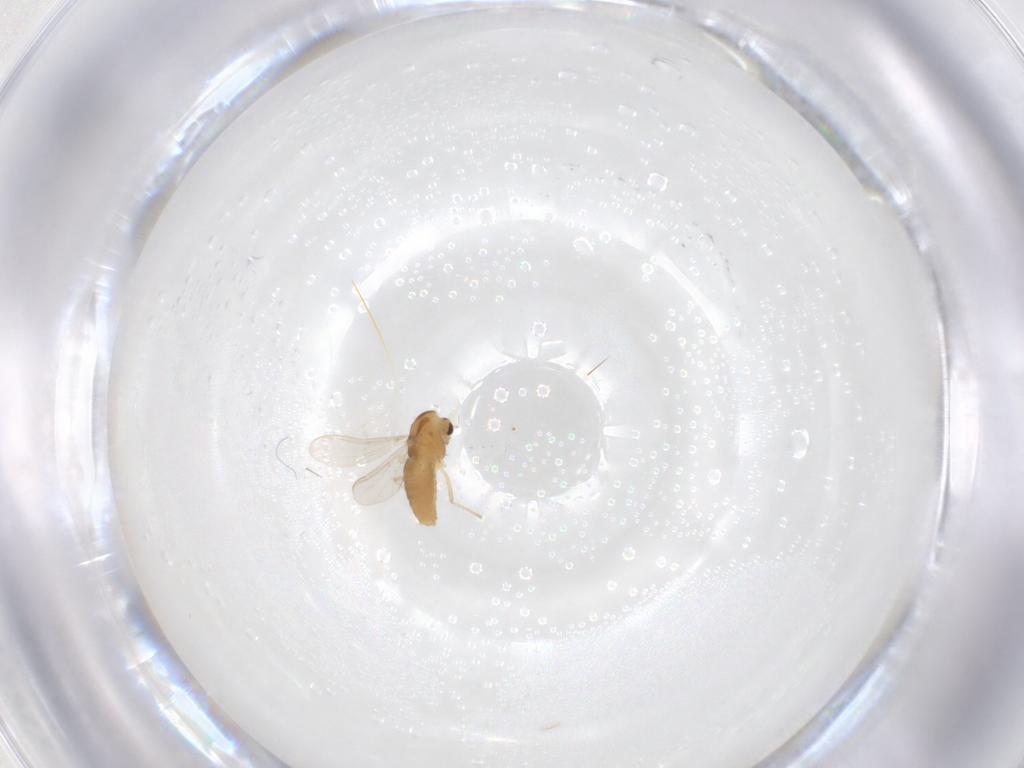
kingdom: Animalia
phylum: Arthropoda
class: Insecta
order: Diptera
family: Chironomidae
